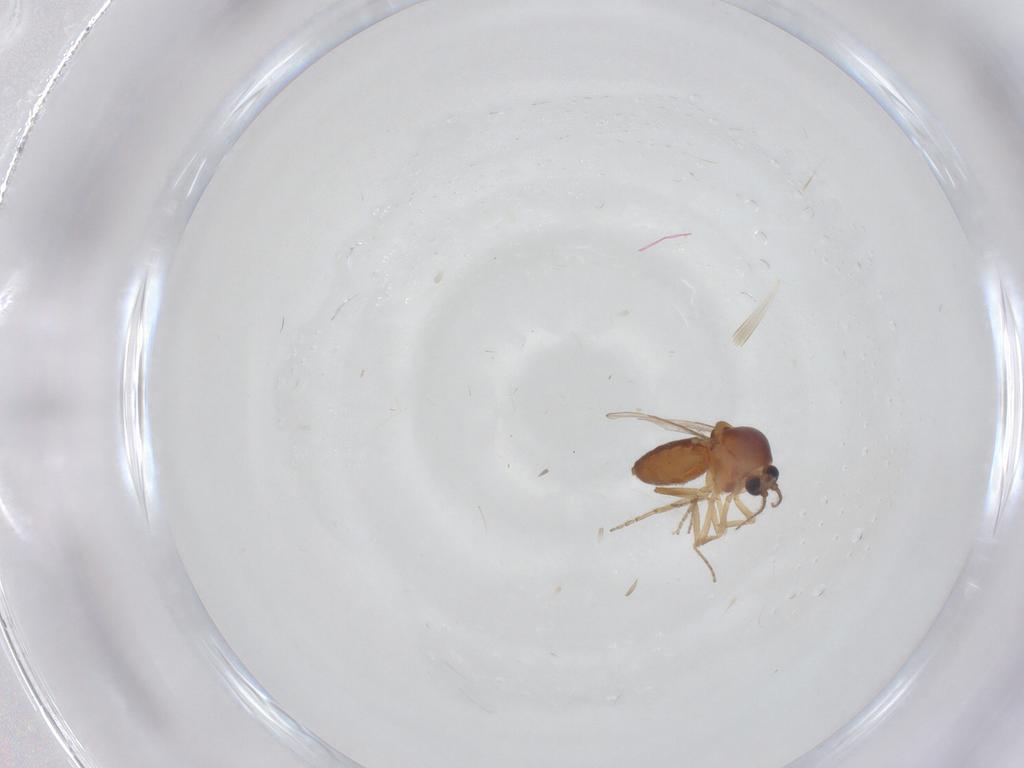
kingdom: Animalia
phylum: Arthropoda
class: Insecta
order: Diptera
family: Ceratopogonidae
